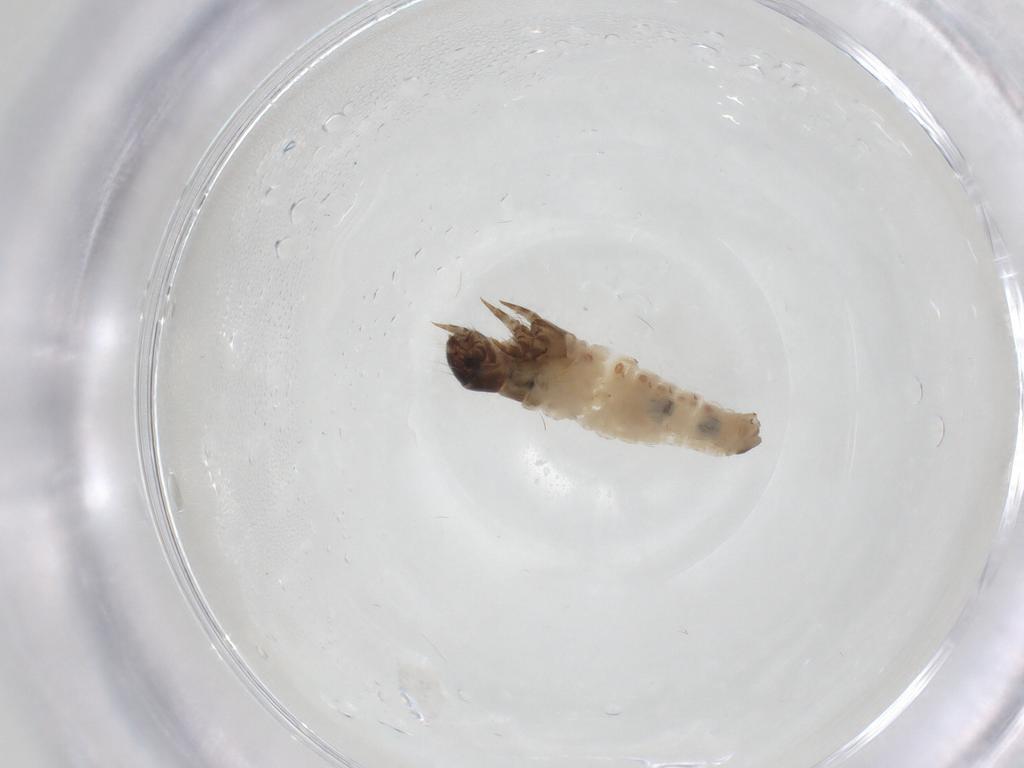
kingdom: Animalia
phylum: Arthropoda
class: Insecta
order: Lepidoptera
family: Psychidae
